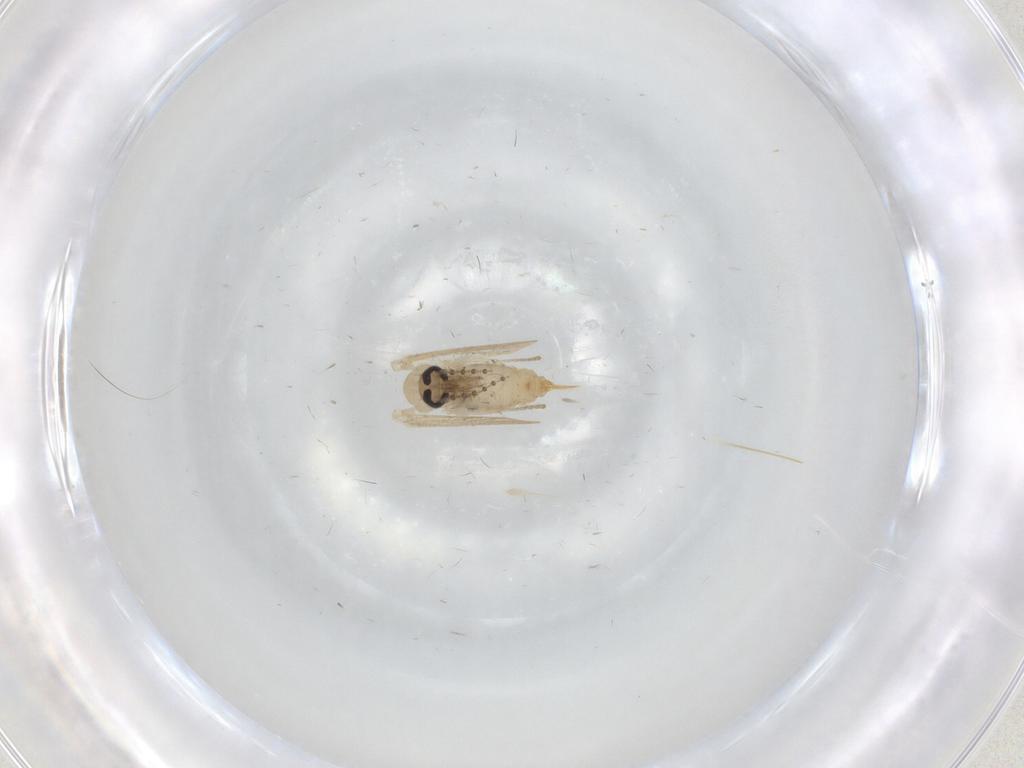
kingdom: Animalia
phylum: Arthropoda
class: Insecta
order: Diptera
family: Psychodidae
